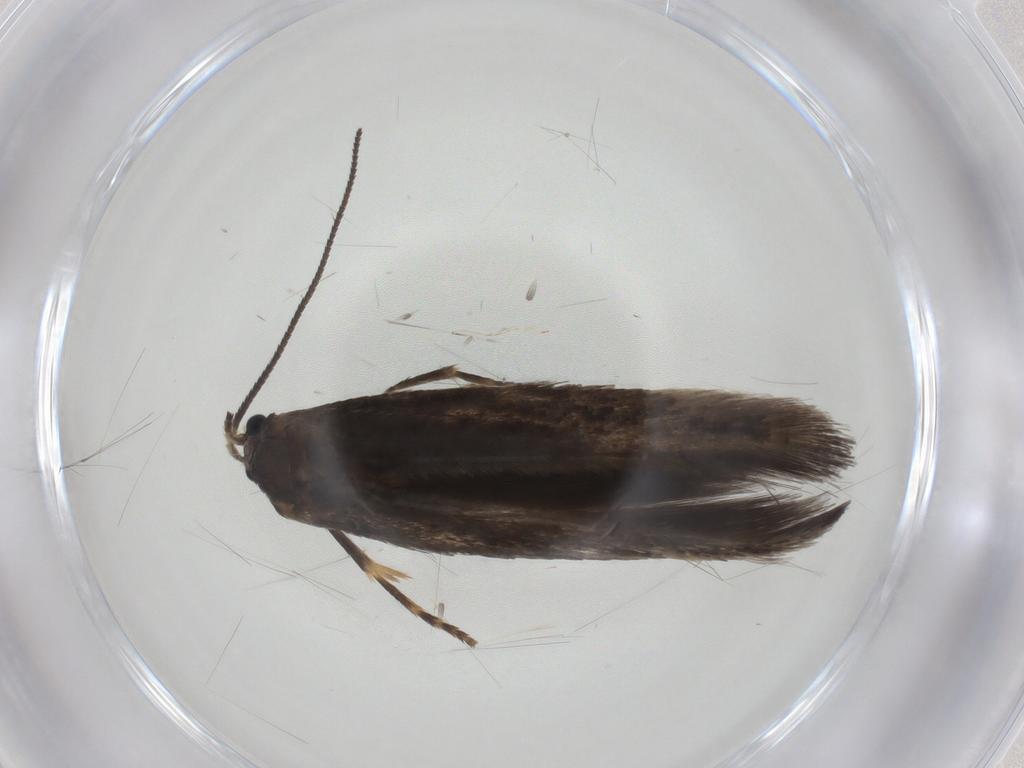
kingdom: Animalia
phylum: Arthropoda
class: Insecta
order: Lepidoptera
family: Nepticulidae
